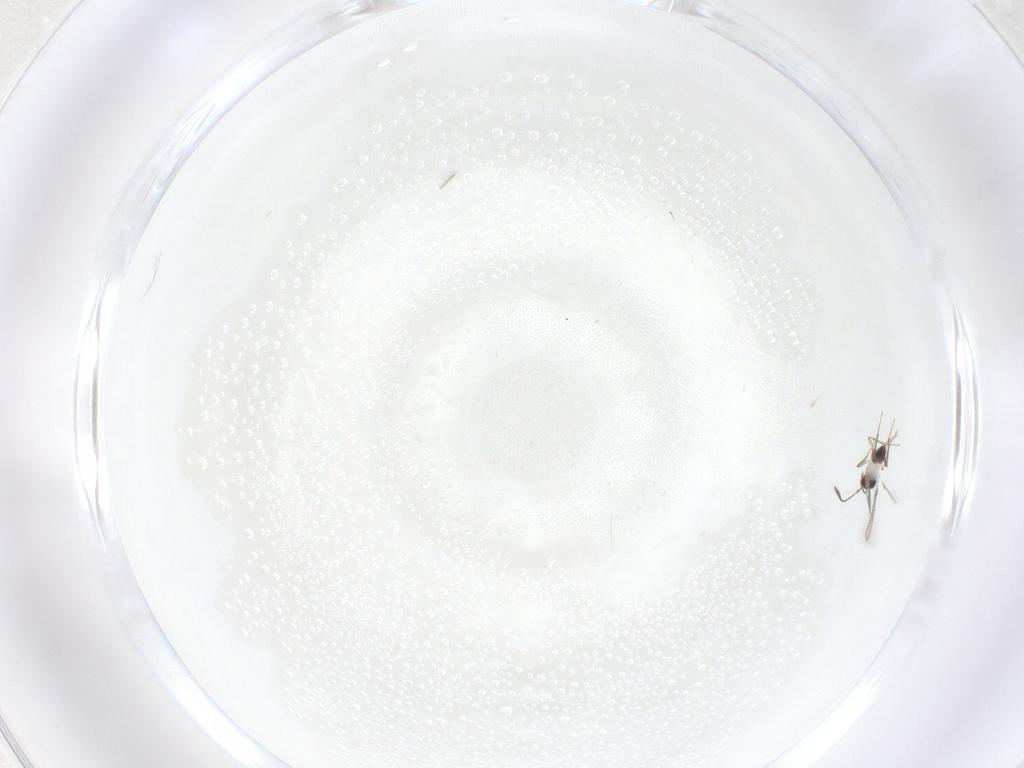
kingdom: Animalia
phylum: Arthropoda
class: Insecta
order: Hymenoptera
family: Mymaridae
